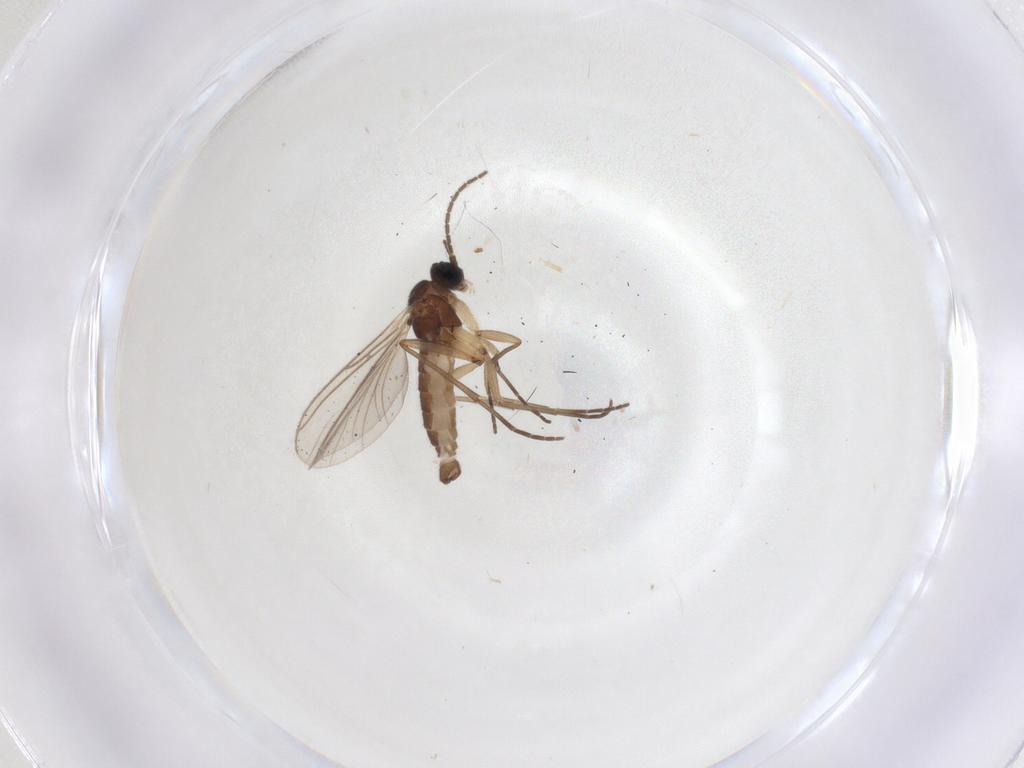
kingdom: Animalia
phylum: Arthropoda
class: Insecta
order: Diptera
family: Sciaridae
